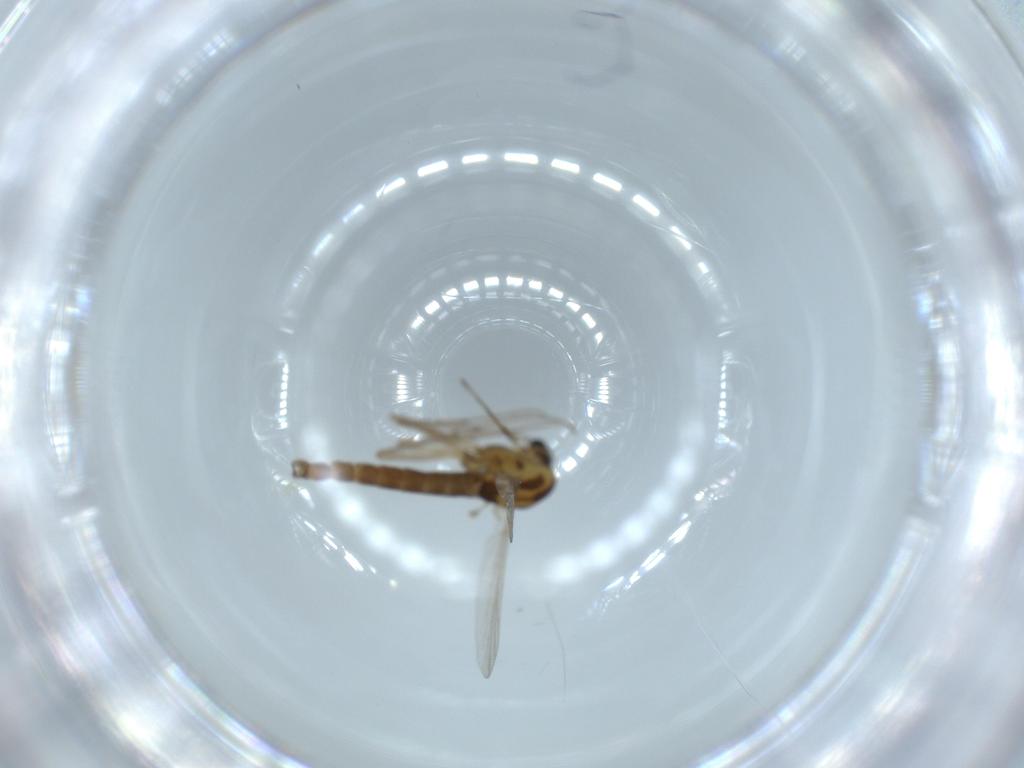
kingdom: Animalia
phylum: Arthropoda
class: Insecta
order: Diptera
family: Chironomidae
